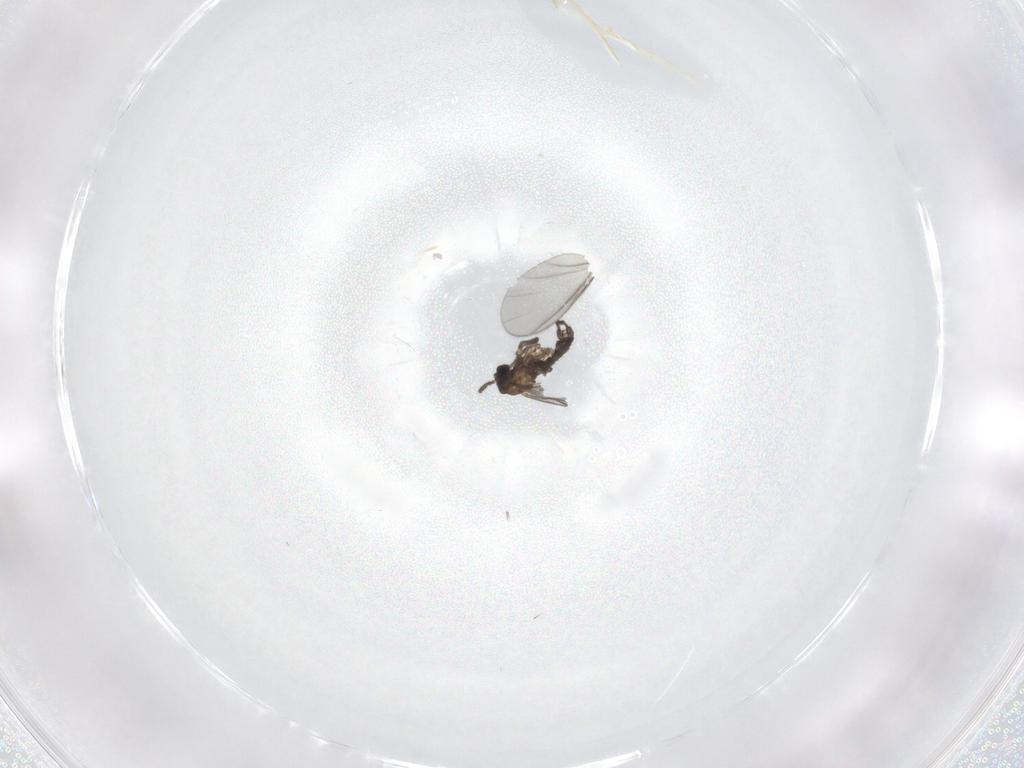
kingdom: Animalia
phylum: Arthropoda
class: Insecta
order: Diptera
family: Sciaridae
